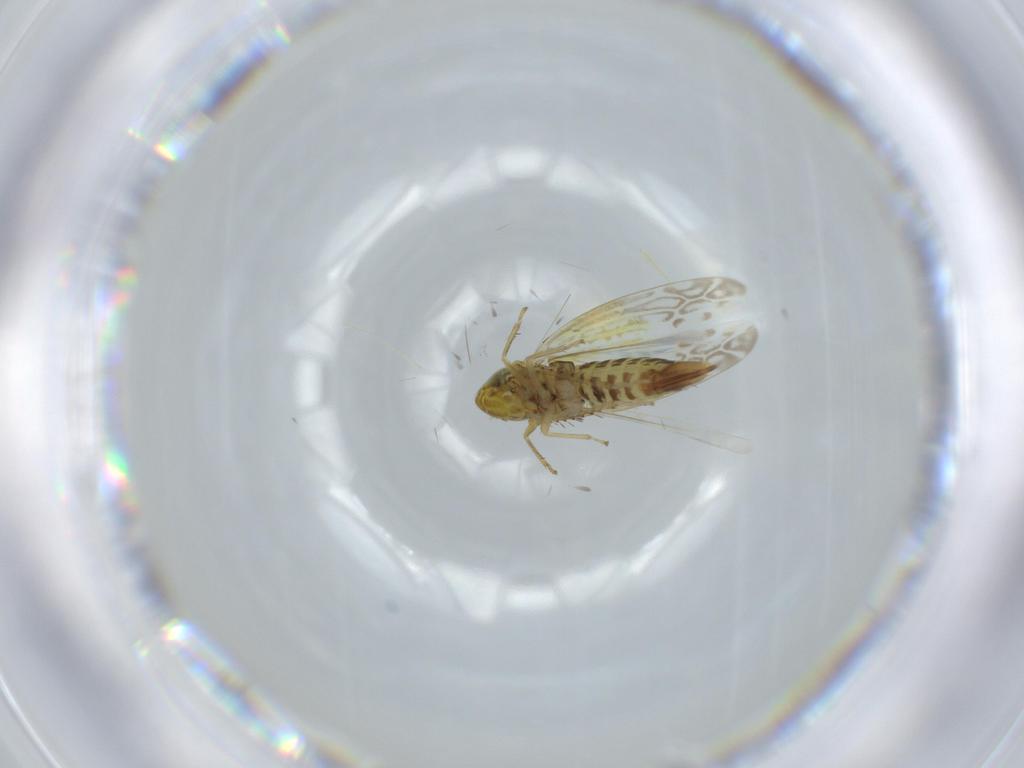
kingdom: Animalia
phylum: Arthropoda
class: Insecta
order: Hemiptera
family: Cicadellidae
